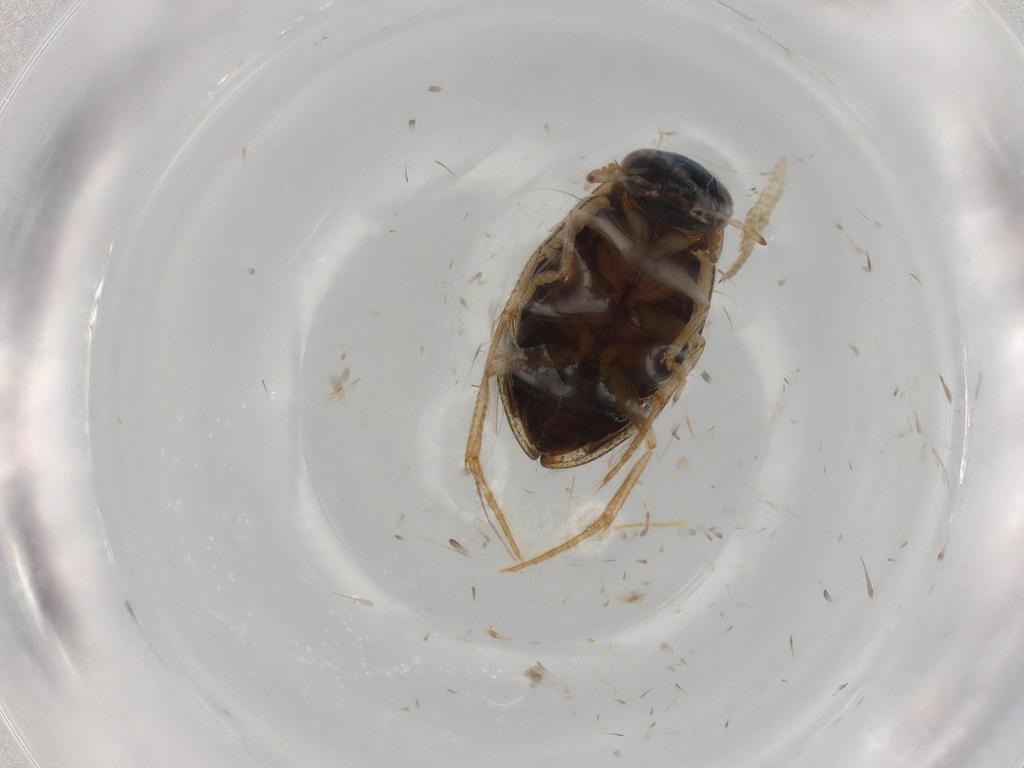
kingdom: Animalia
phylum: Arthropoda
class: Insecta
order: Coleoptera
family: Hydrophilidae
